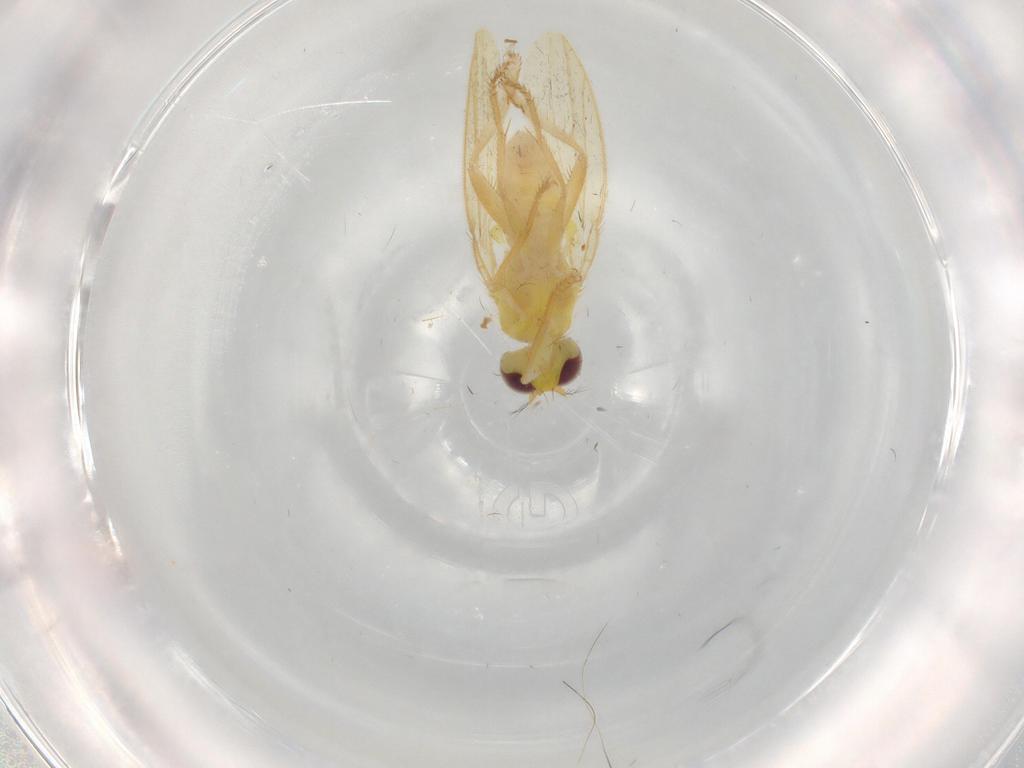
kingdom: Animalia
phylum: Arthropoda
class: Insecta
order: Diptera
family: Periscelididae
